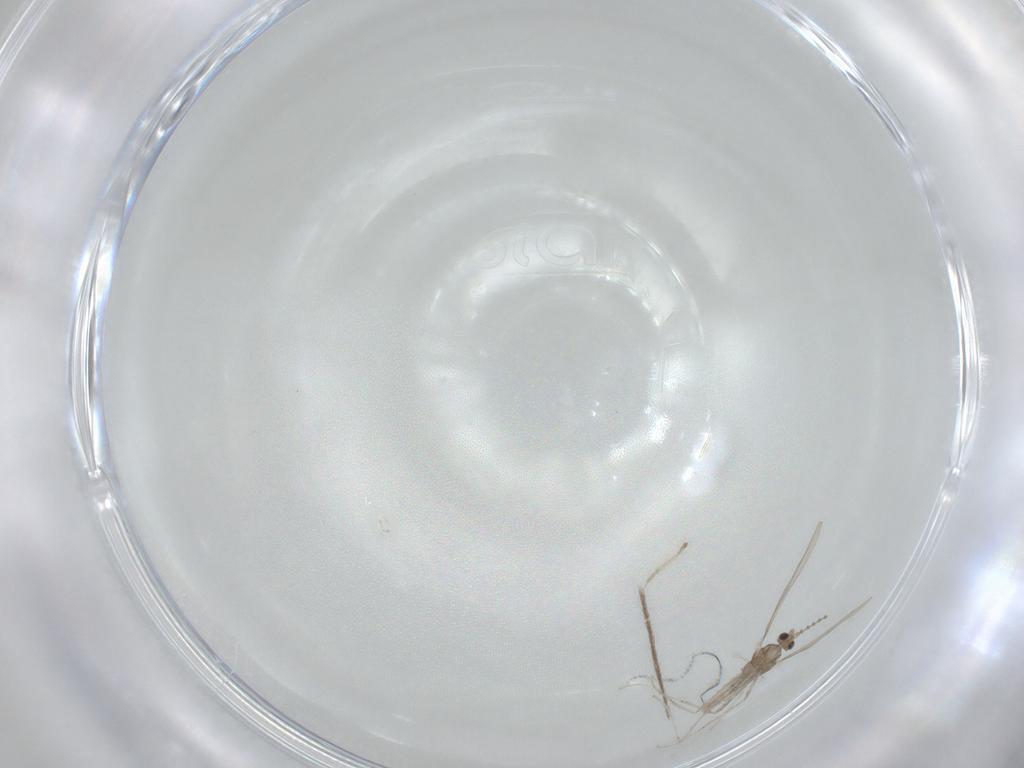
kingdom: Animalia
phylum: Arthropoda
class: Insecta
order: Diptera
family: Cecidomyiidae
